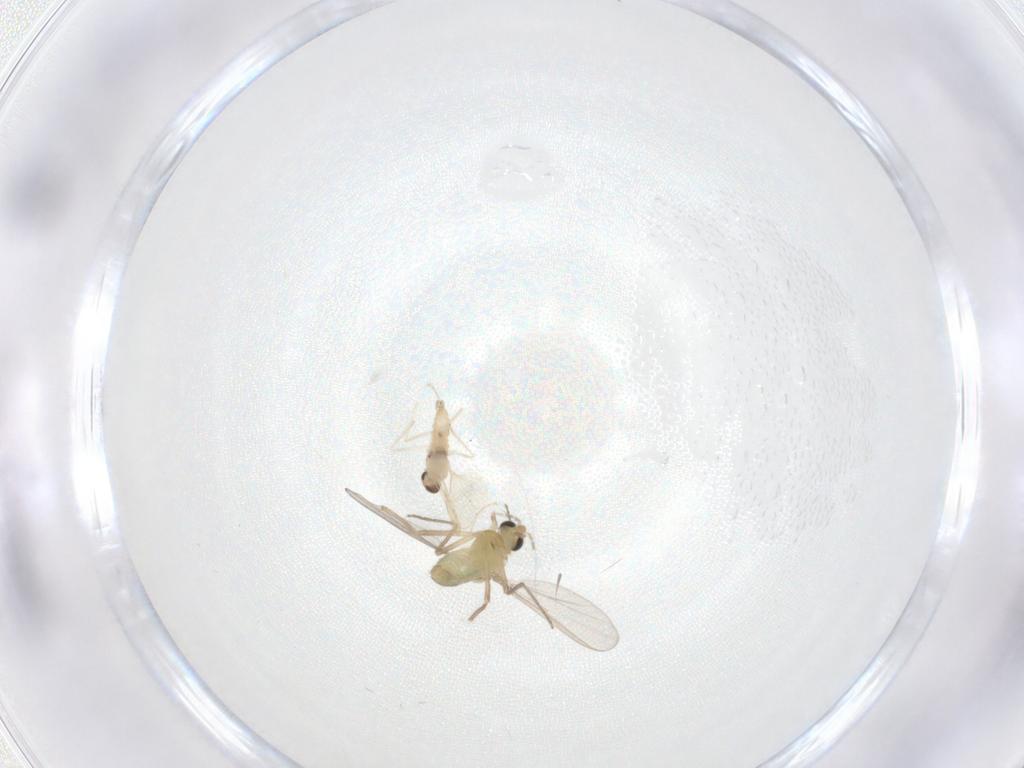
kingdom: Animalia
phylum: Arthropoda
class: Insecta
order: Diptera
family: Chironomidae
